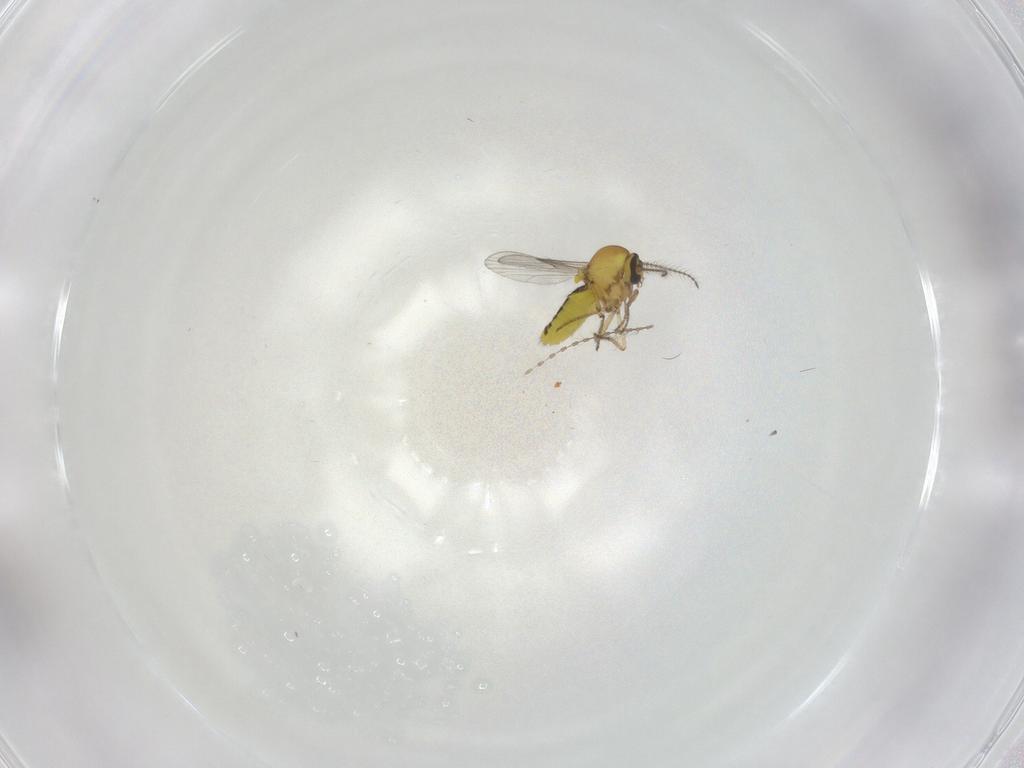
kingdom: Animalia
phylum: Arthropoda
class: Insecta
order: Diptera
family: Cecidomyiidae
